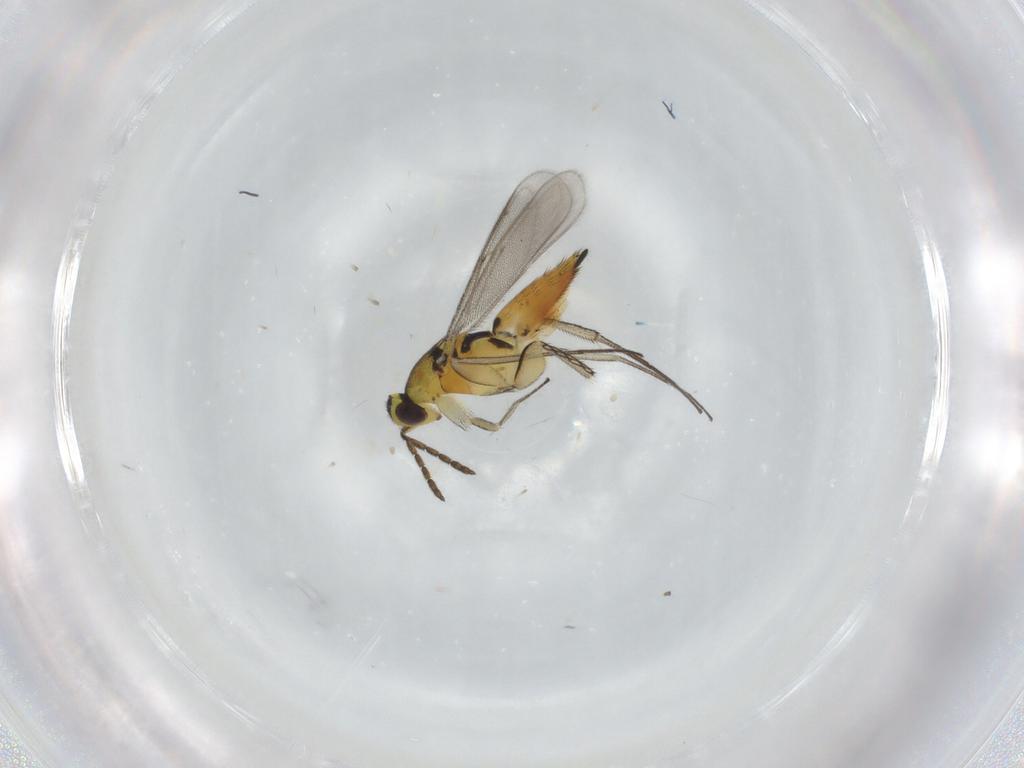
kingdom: Animalia
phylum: Arthropoda
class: Insecta
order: Hymenoptera
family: Eulophidae
